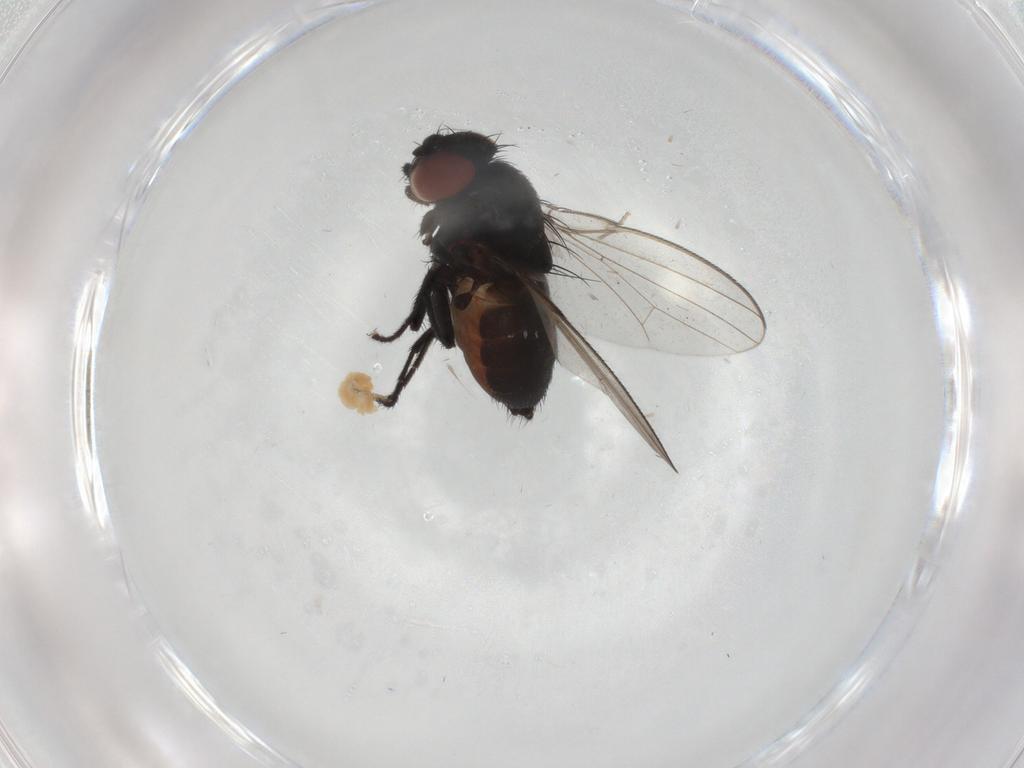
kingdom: Animalia
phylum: Arthropoda
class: Insecta
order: Diptera
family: Milichiidae
